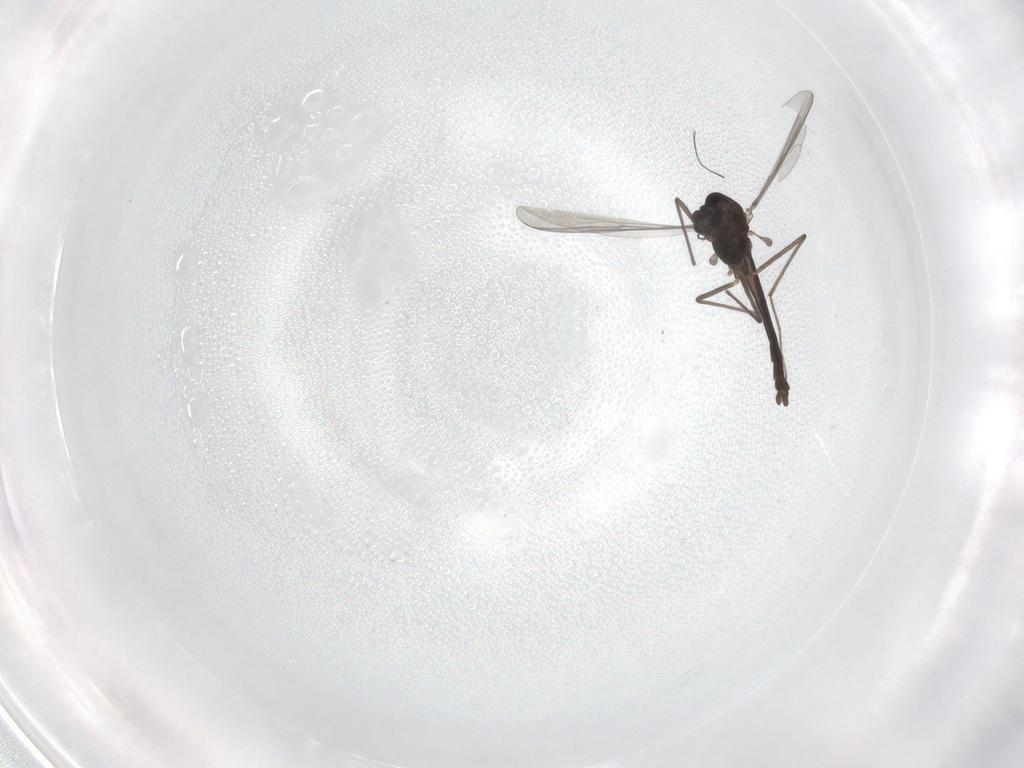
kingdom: Animalia
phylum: Arthropoda
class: Insecta
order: Diptera
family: Chironomidae
